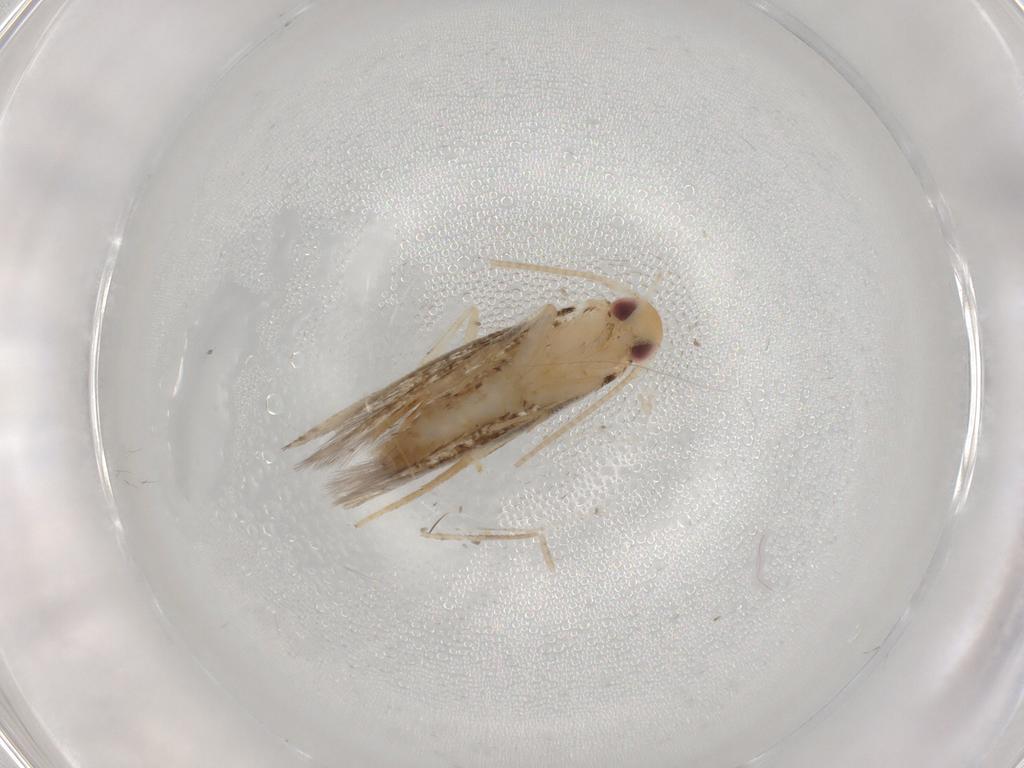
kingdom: Animalia
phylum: Arthropoda
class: Insecta
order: Lepidoptera
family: Momphidae
